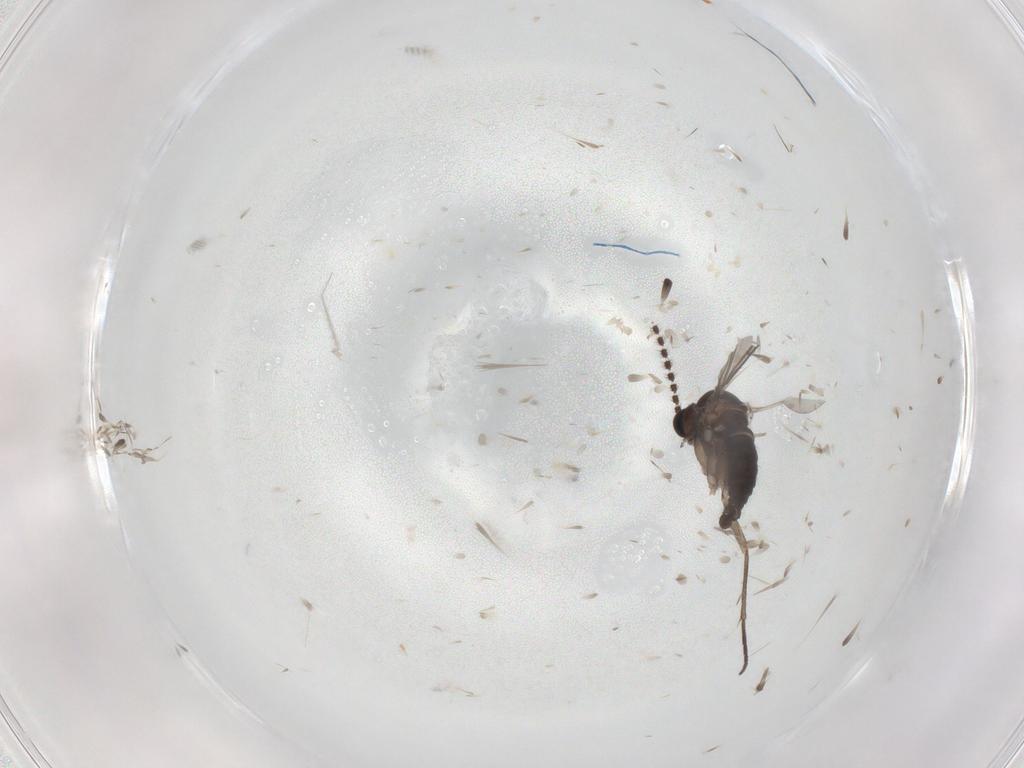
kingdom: Animalia
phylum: Arthropoda
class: Insecta
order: Diptera
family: Sciaridae
